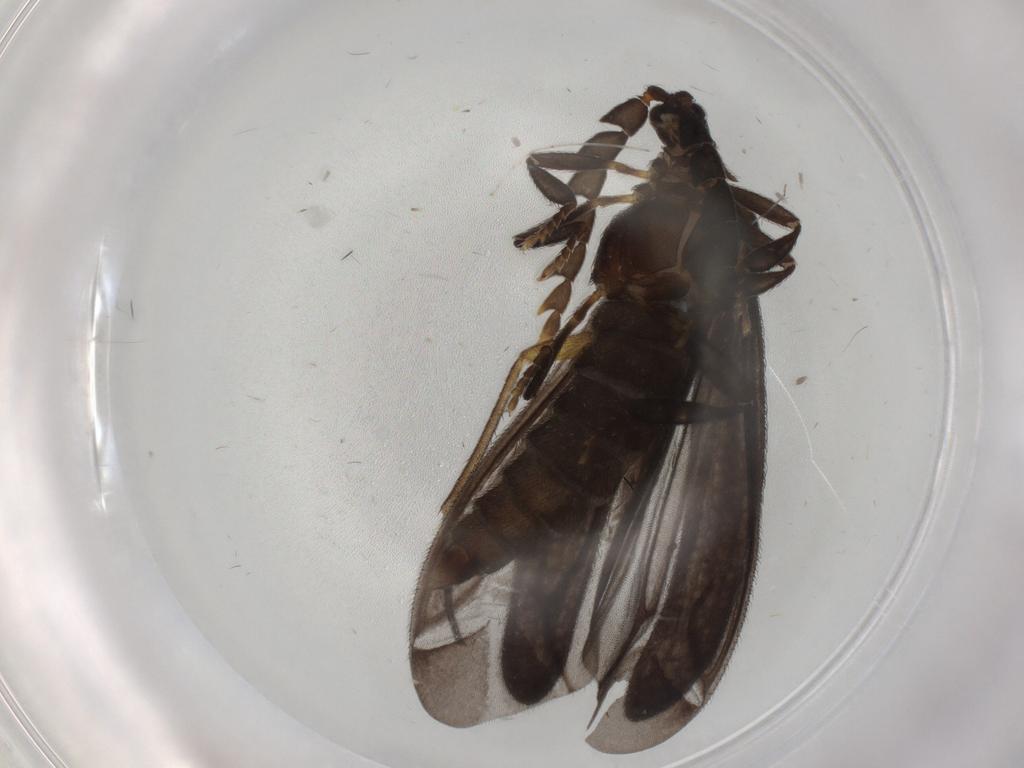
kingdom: Animalia
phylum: Arthropoda
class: Insecta
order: Coleoptera
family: Lycidae
